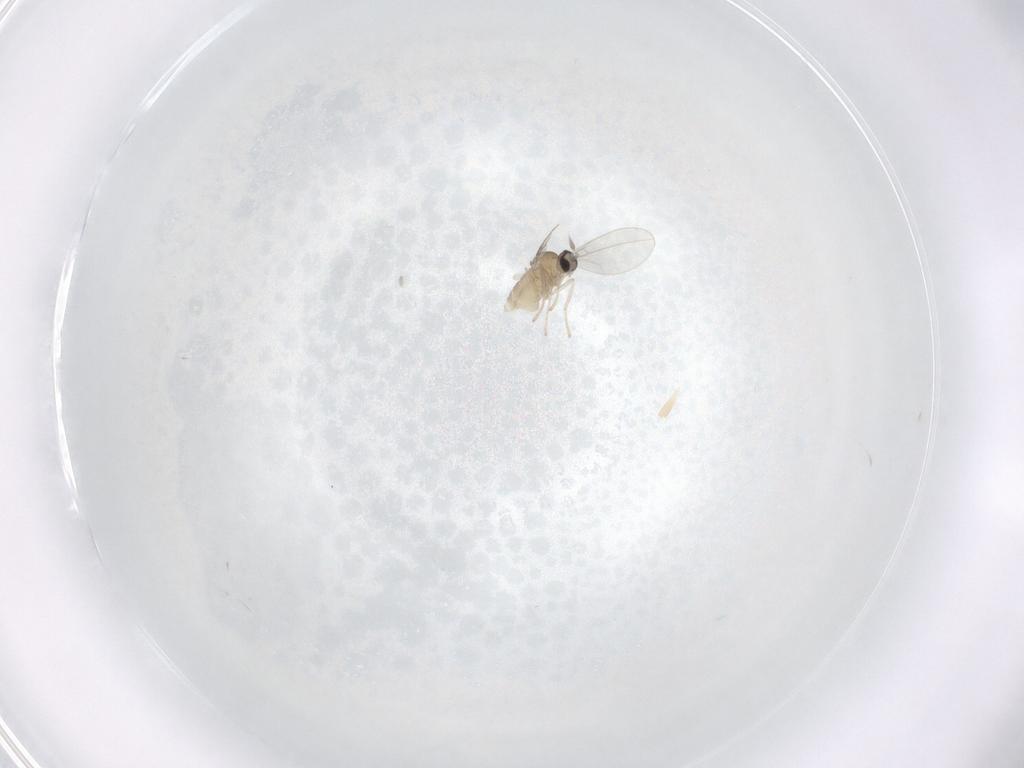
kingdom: Animalia
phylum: Arthropoda
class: Insecta
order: Diptera
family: Cecidomyiidae
